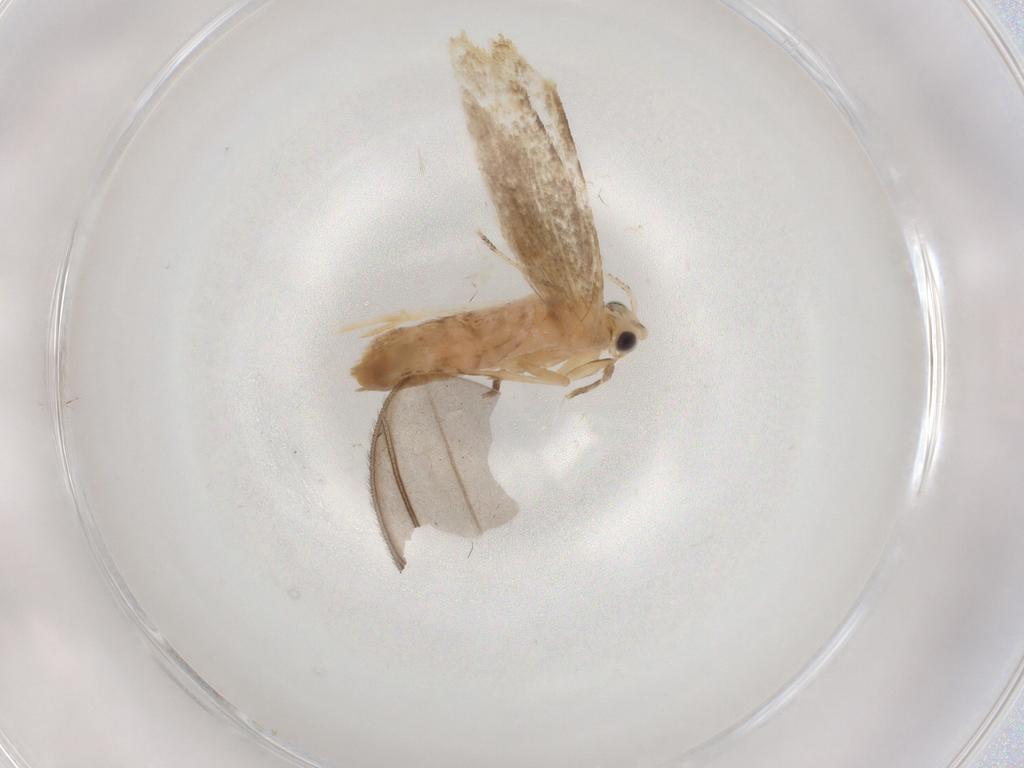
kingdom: Animalia
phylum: Arthropoda
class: Insecta
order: Lepidoptera
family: Dryadaulidae
